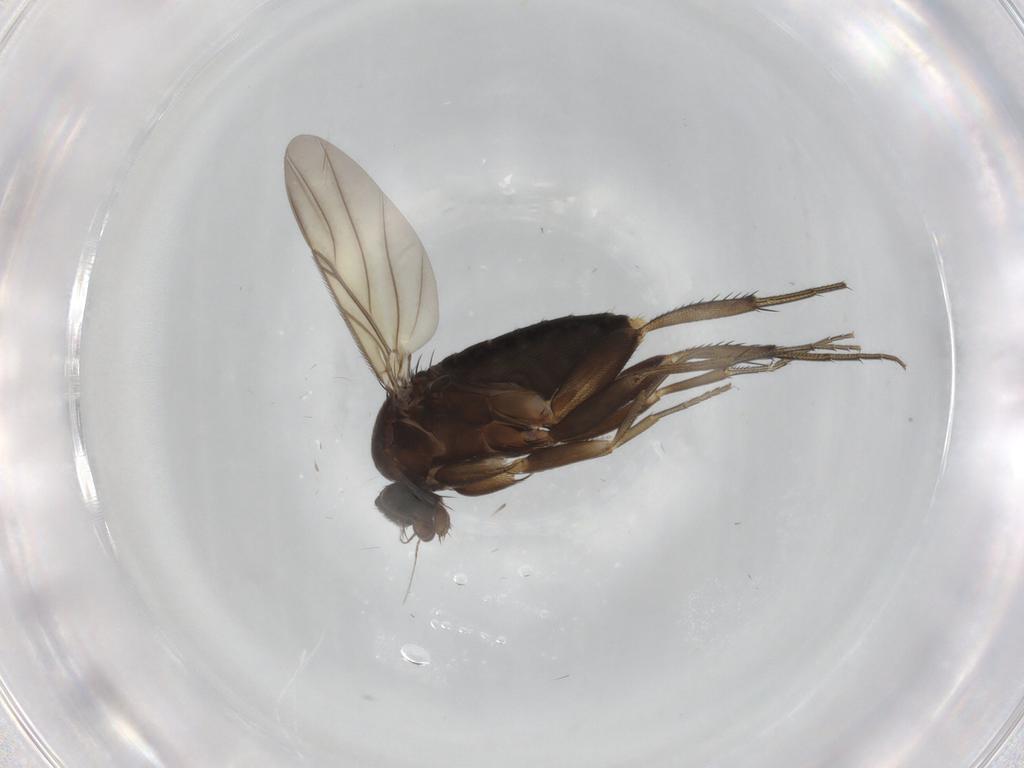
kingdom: Animalia
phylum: Arthropoda
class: Insecta
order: Diptera
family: Phoridae
